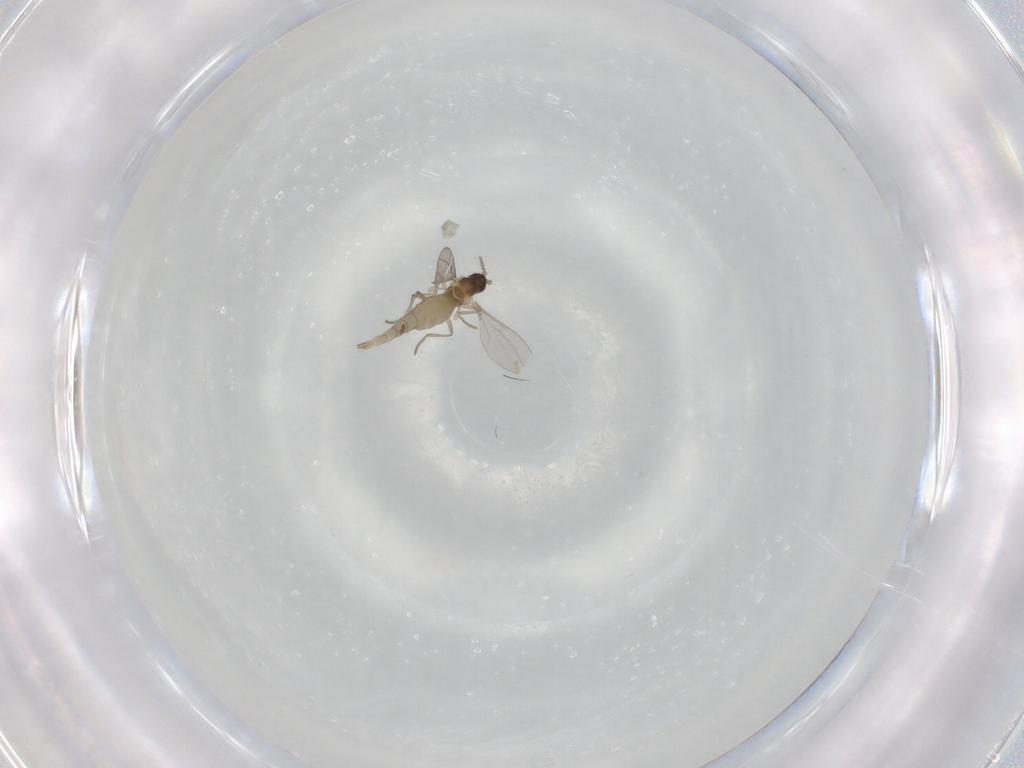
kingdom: Animalia
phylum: Arthropoda
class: Insecta
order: Diptera
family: Cecidomyiidae
